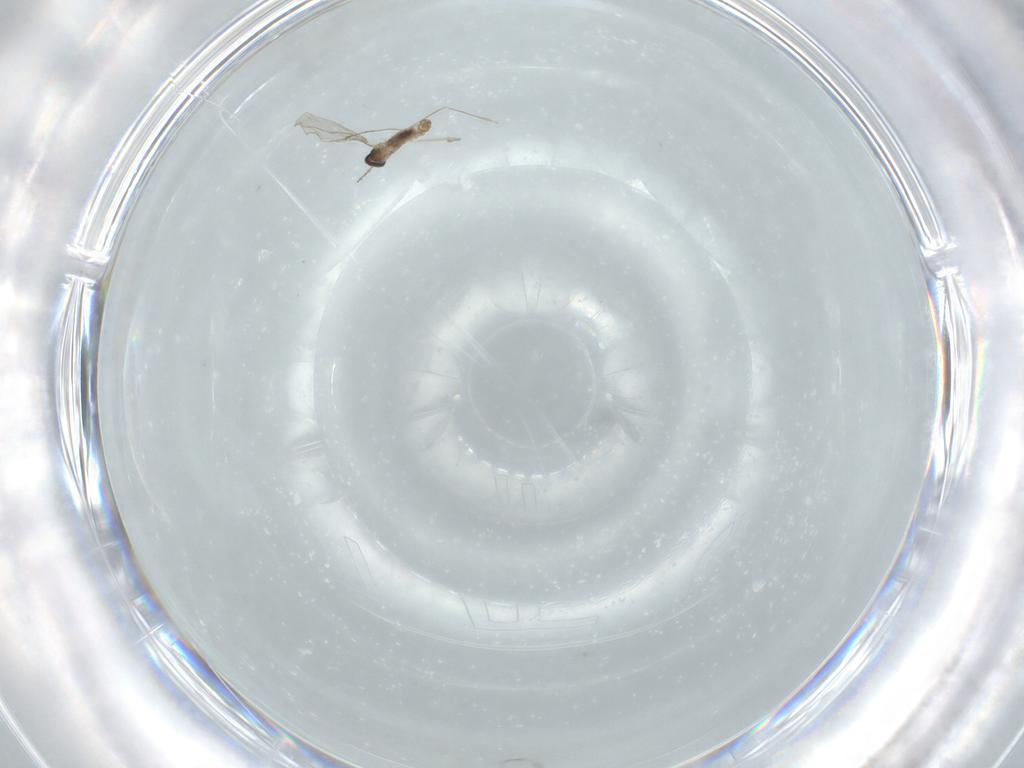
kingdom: Animalia
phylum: Arthropoda
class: Insecta
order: Diptera
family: Cecidomyiidae
